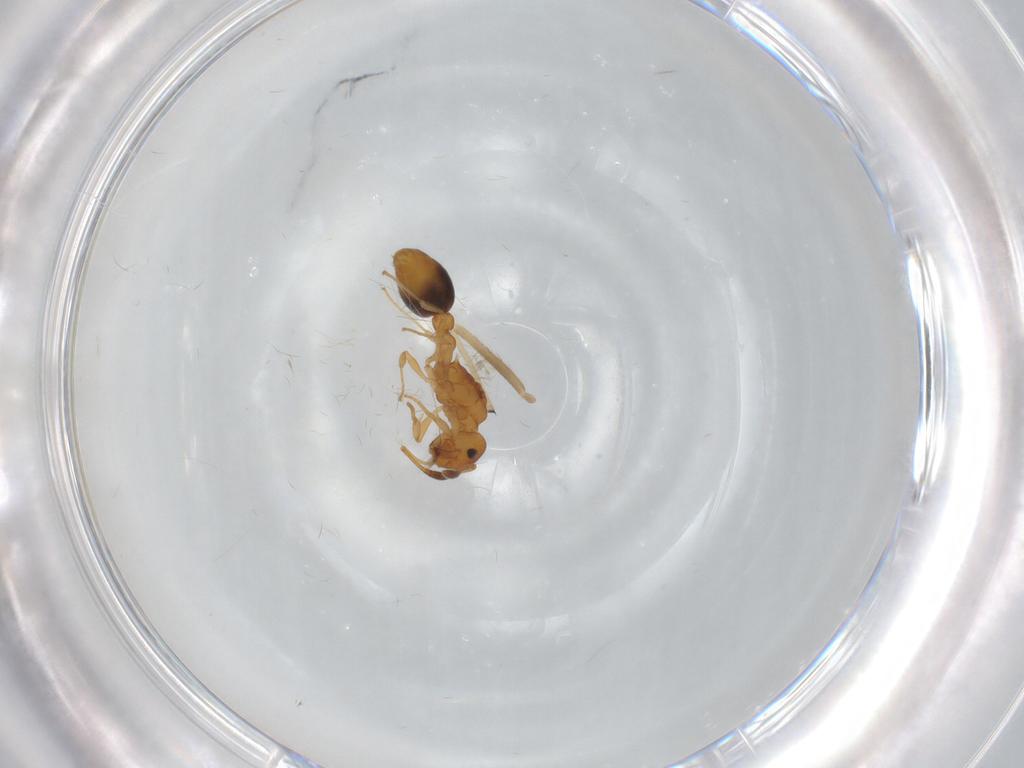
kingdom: Animalia
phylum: Arthropoda
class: Insecta
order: Hymenoptera
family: Formicidae
